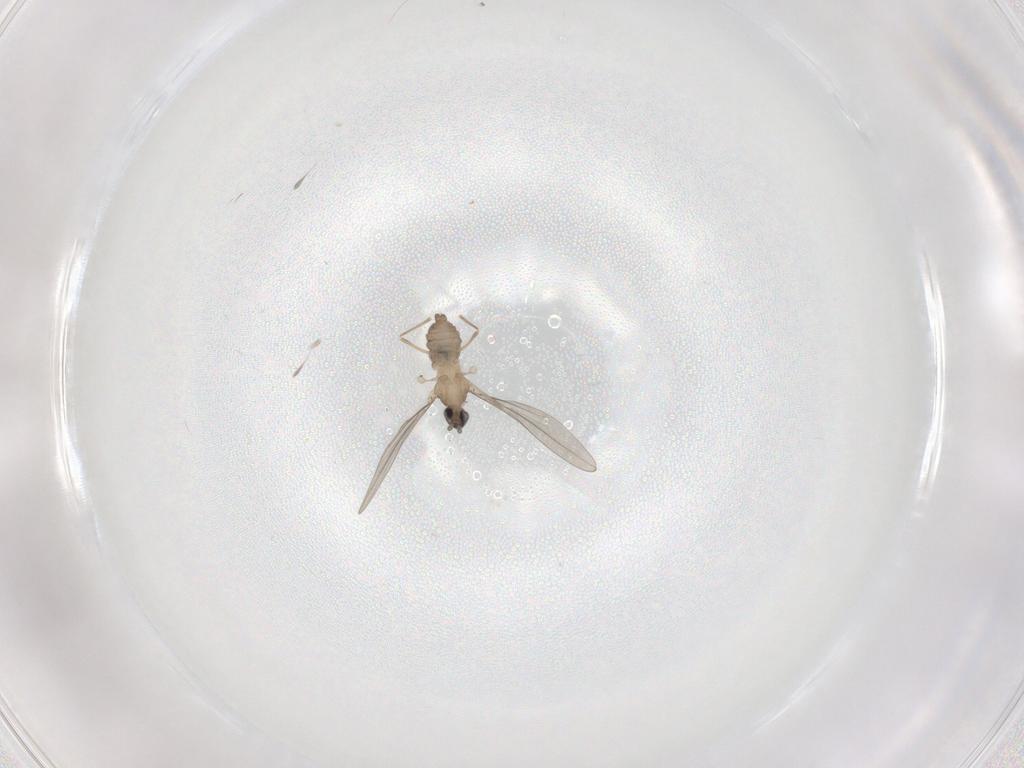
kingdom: Animalia
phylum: Arthropoda
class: Insecta
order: Diptera
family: Cecidomyiidae
